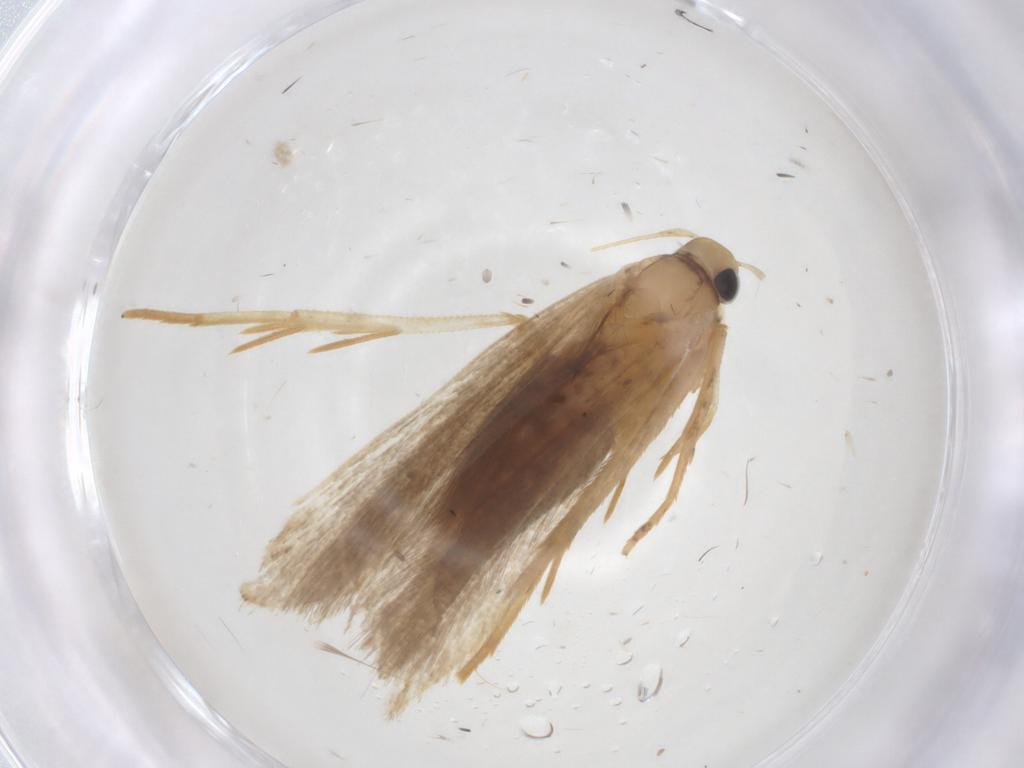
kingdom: Animalia
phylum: Arthropoda
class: Insecta
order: Lepidoptera
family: Gelechiidae
